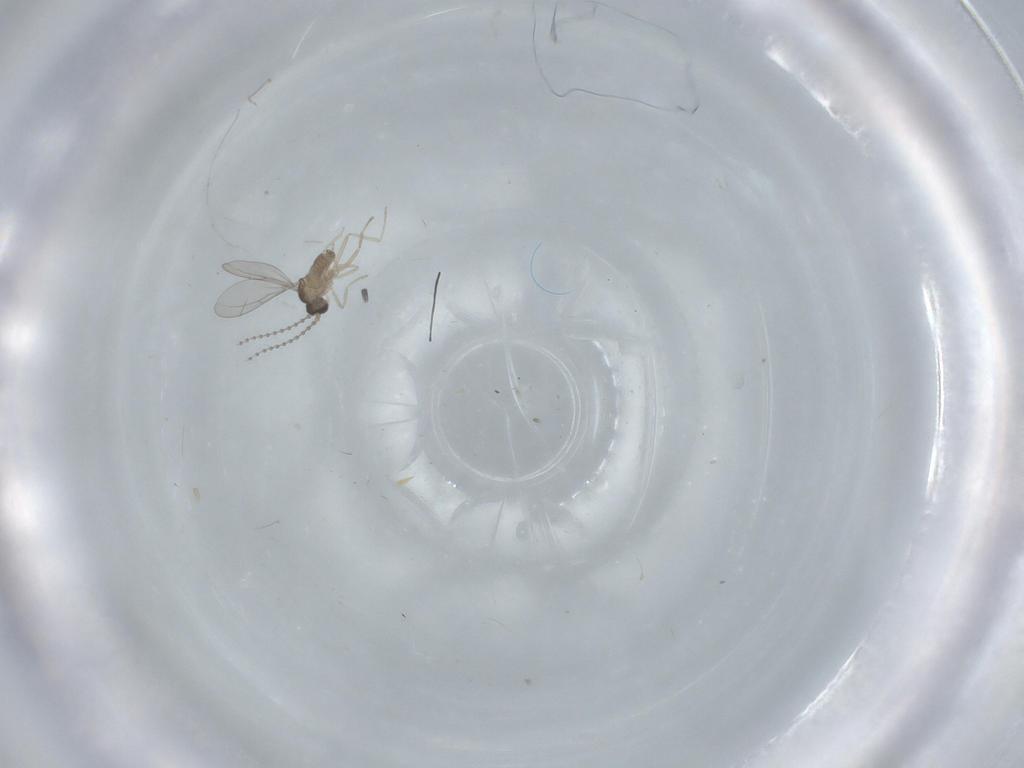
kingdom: Animalia
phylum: Arthropoda
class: Insecta
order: Diptera
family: Cecidomyiidae
